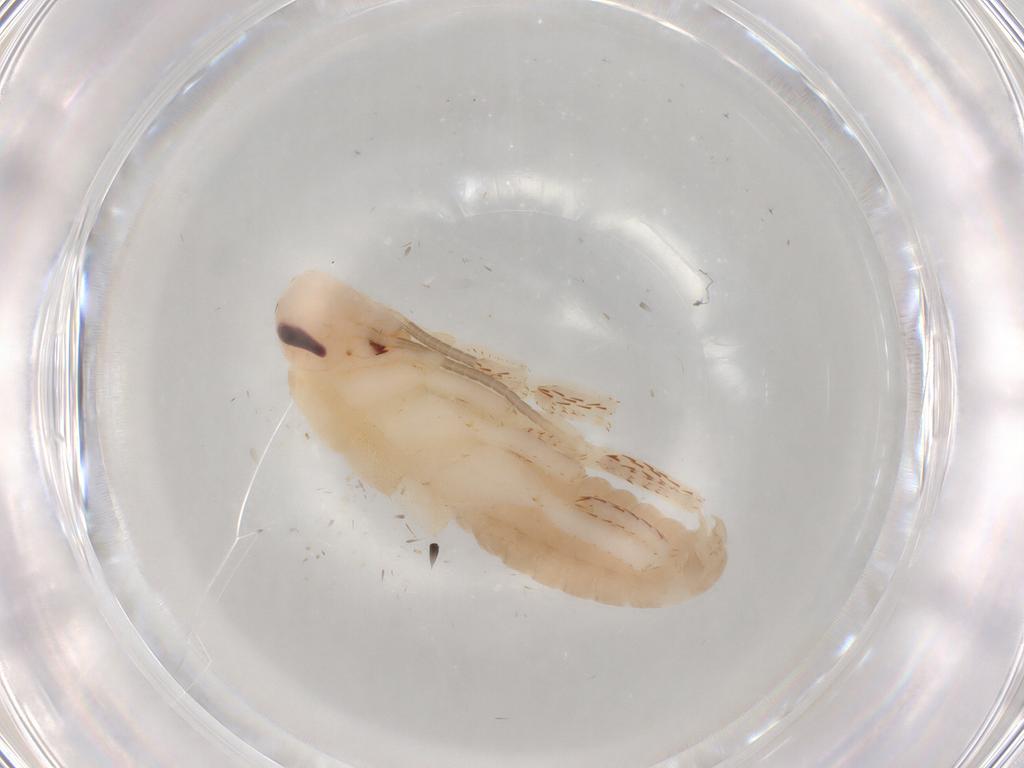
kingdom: Animalia
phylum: Arthropoda
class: Insecta
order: Blattodea
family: Blaberidae
